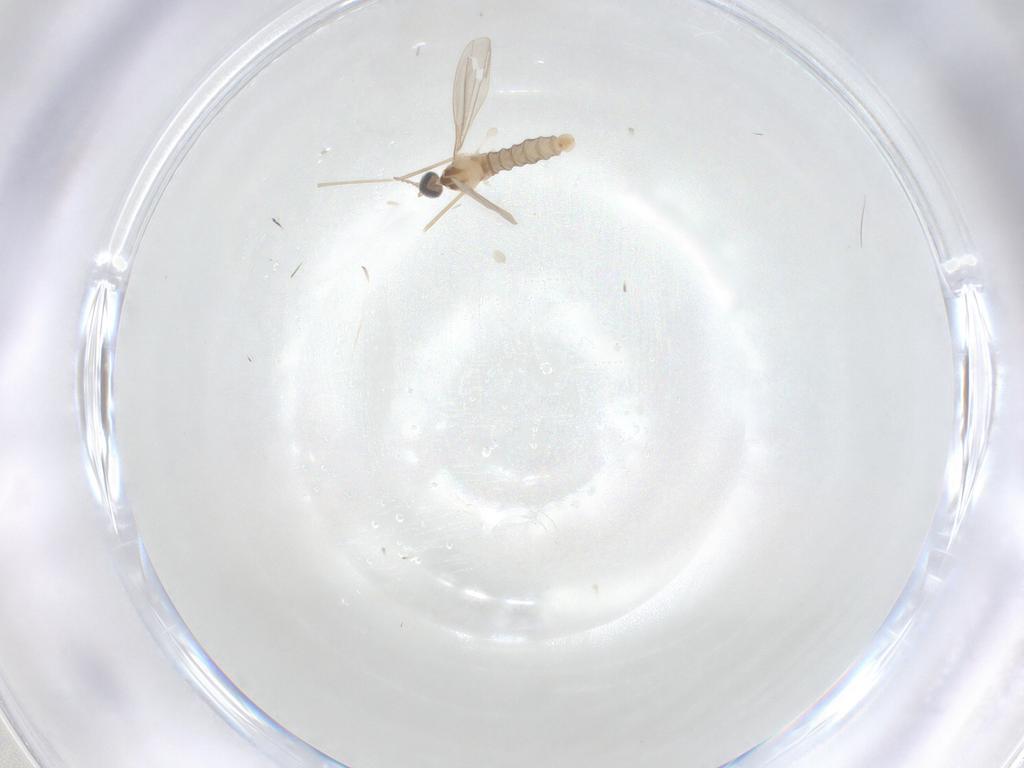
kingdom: Animalia
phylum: Arthropoda
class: Insecta
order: Diptera
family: Cecidomyiidae
